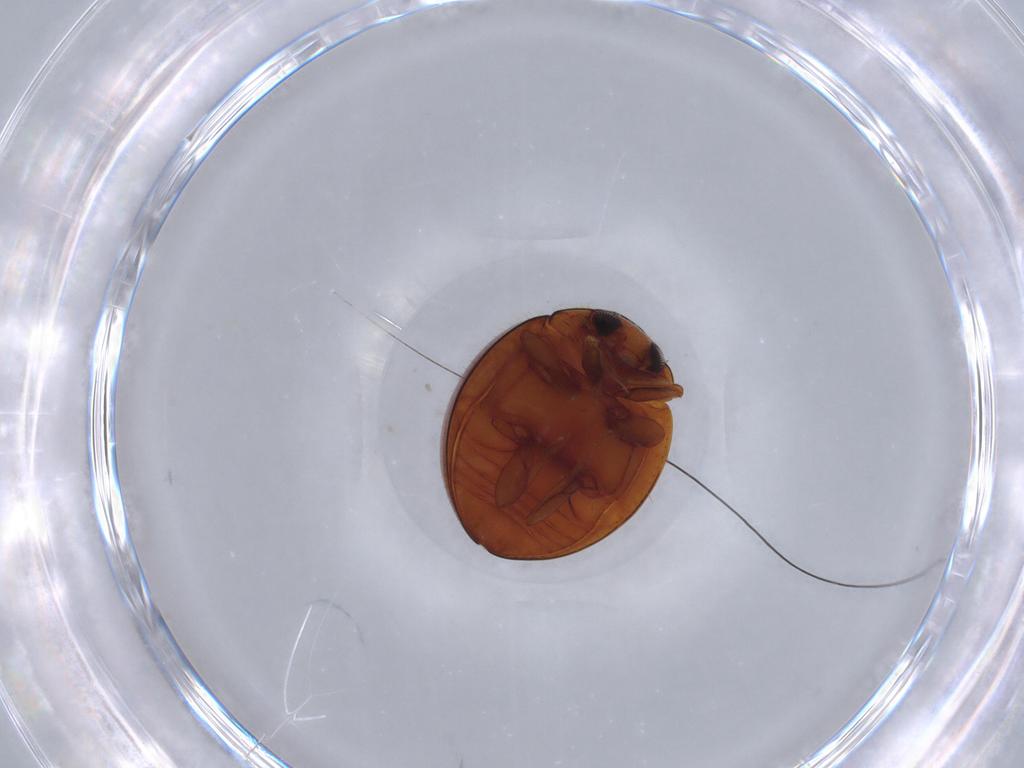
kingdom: Animalia
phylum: Arthropoda
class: Insecta
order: Coleoptera
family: Coccinellidae
